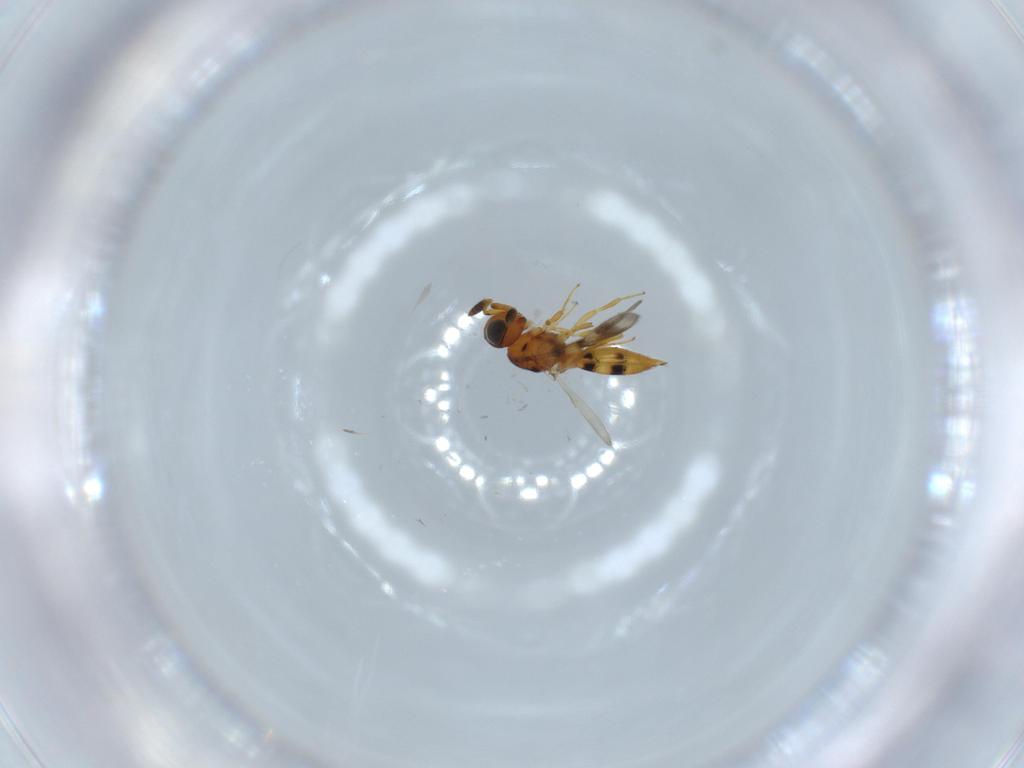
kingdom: Animalia
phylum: Arthropoda
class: Insecta
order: Hymenoptera
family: Scelionidae
